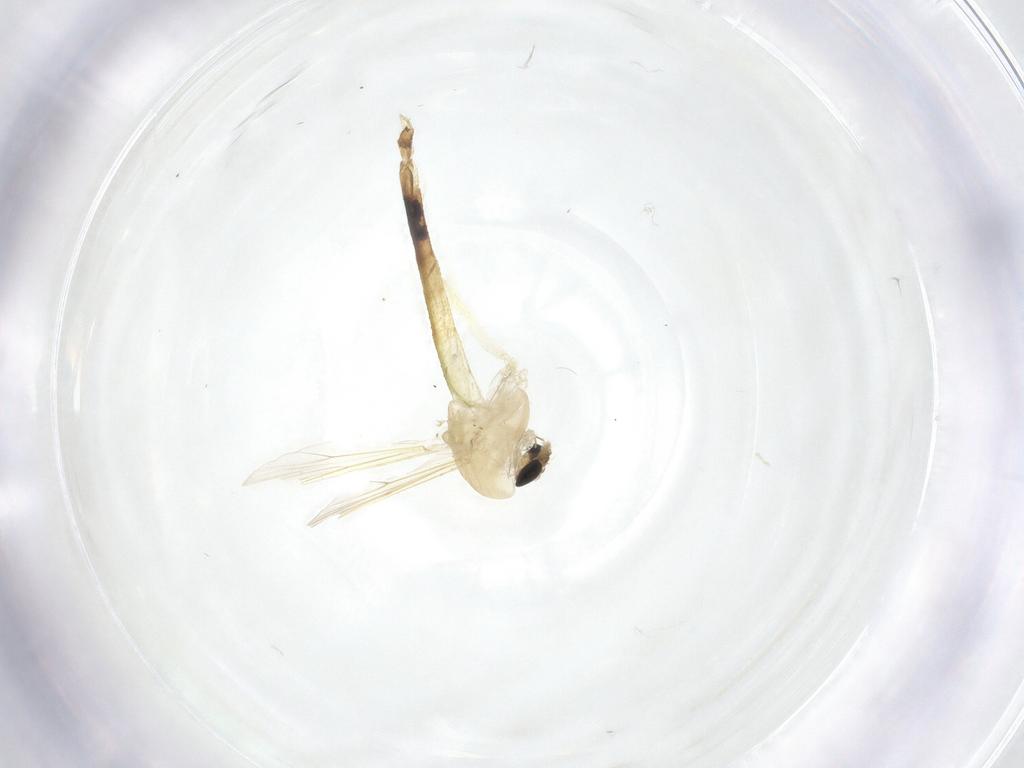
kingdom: Animalia
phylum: Arthropoda
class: Insecta
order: Diptera
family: Chironomidae
